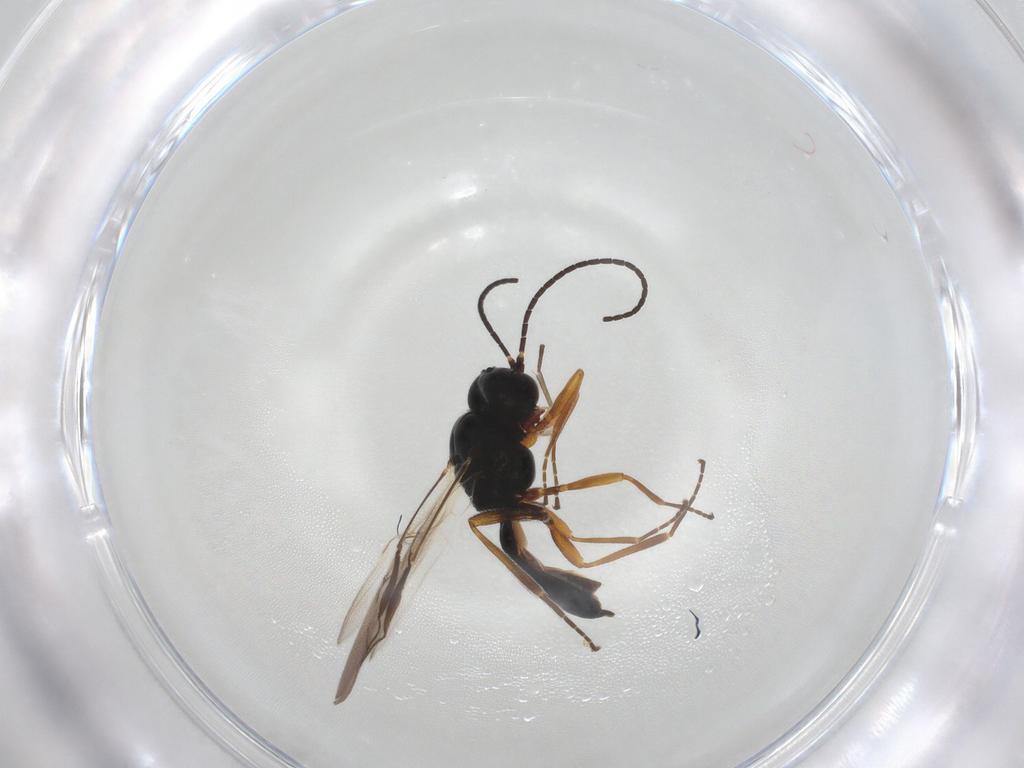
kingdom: Animalia
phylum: Arthropoda
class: Insecta
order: Hymenoptera
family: Braconidae
